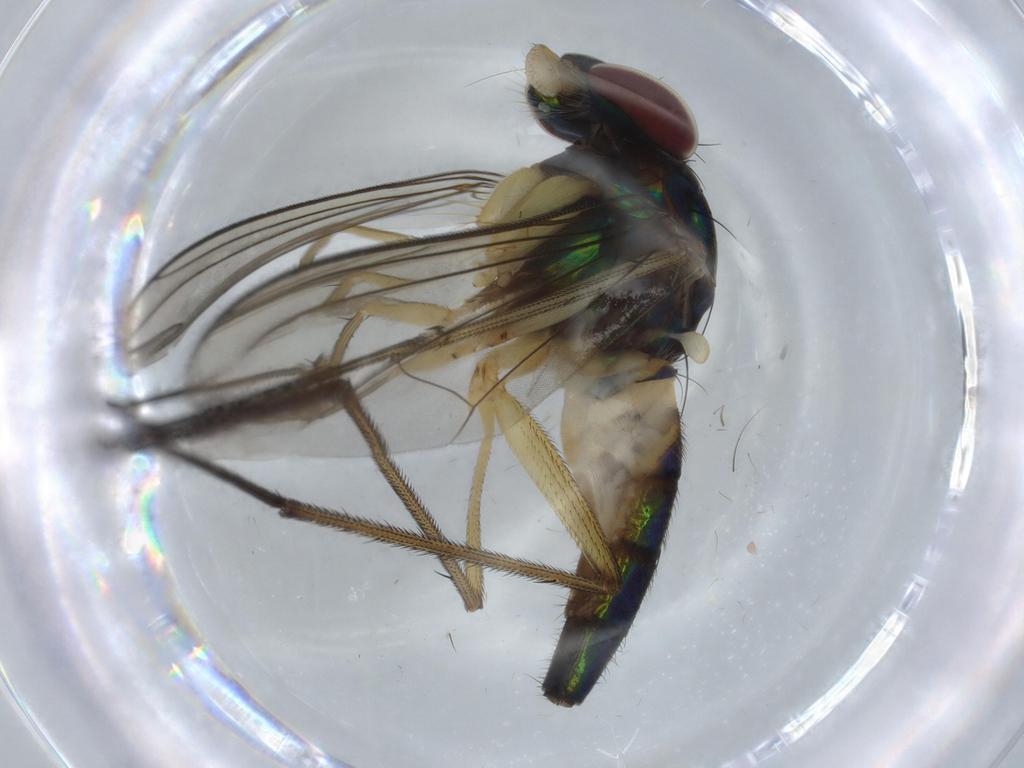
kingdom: Animalia
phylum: Arthropoda
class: Insecta
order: Diptera
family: Dolichopodidae
